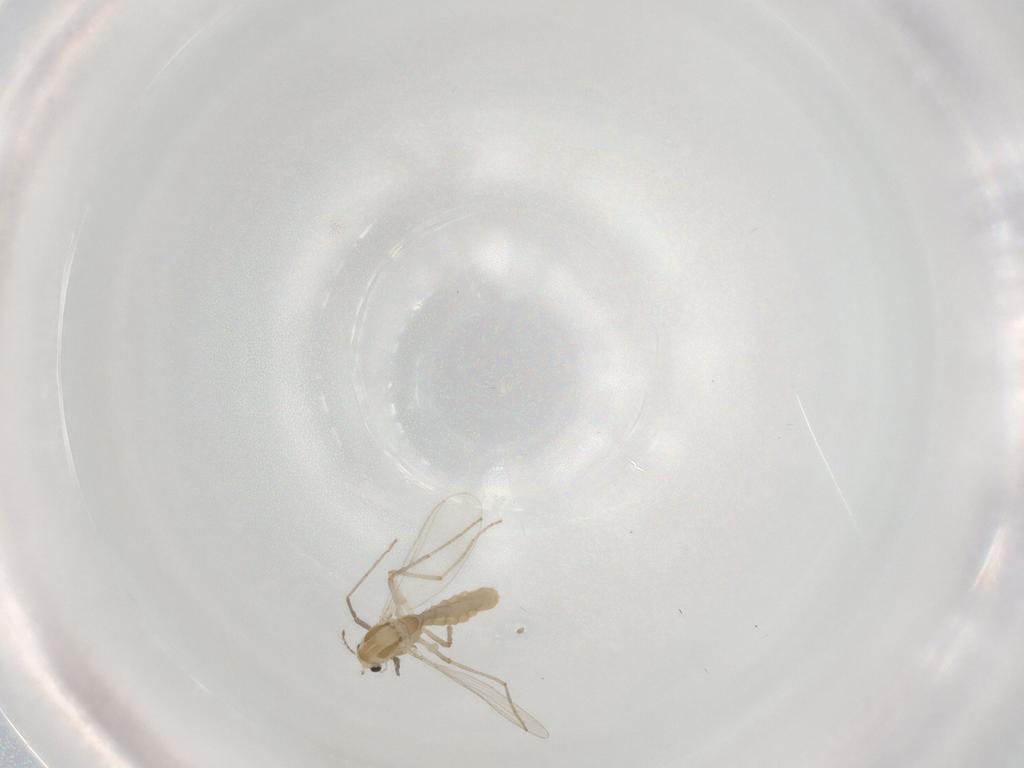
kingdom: Animalia
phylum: Arthropoda
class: Insecta
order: Diptera
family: Chironomidae
